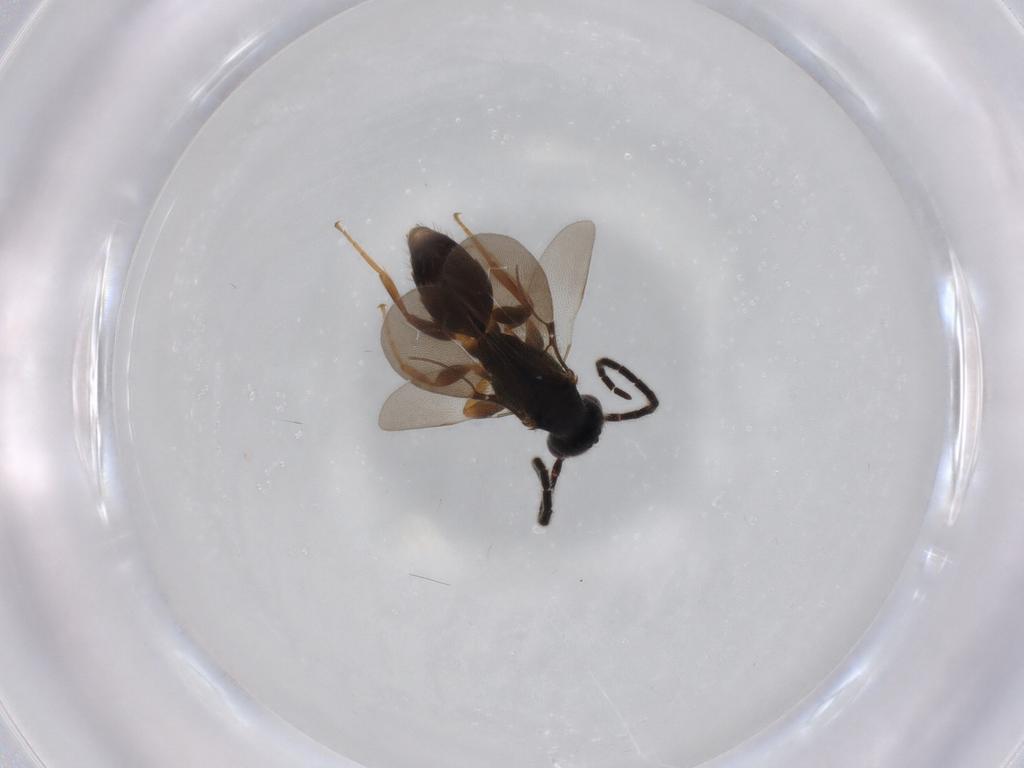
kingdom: Animalia
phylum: Arthropoda
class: Insecta
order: Hymenoptera
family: Bethylidae
